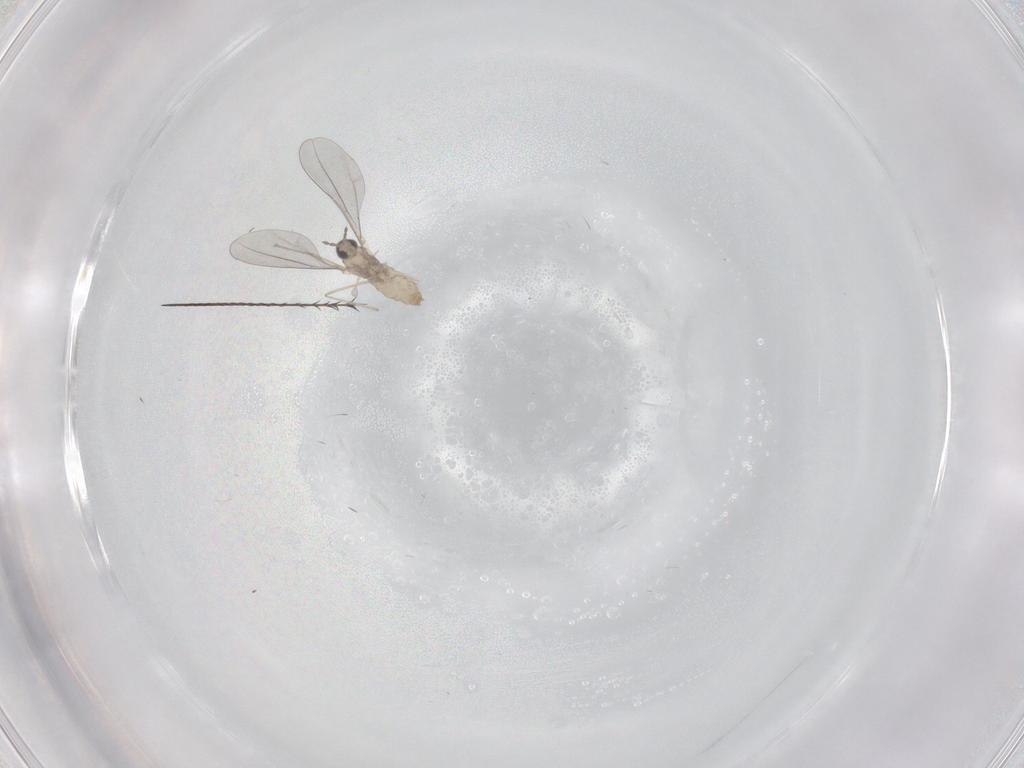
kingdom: Animalia
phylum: Arthropoda
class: Insecta
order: Diptera
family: Cecidomyiidae
